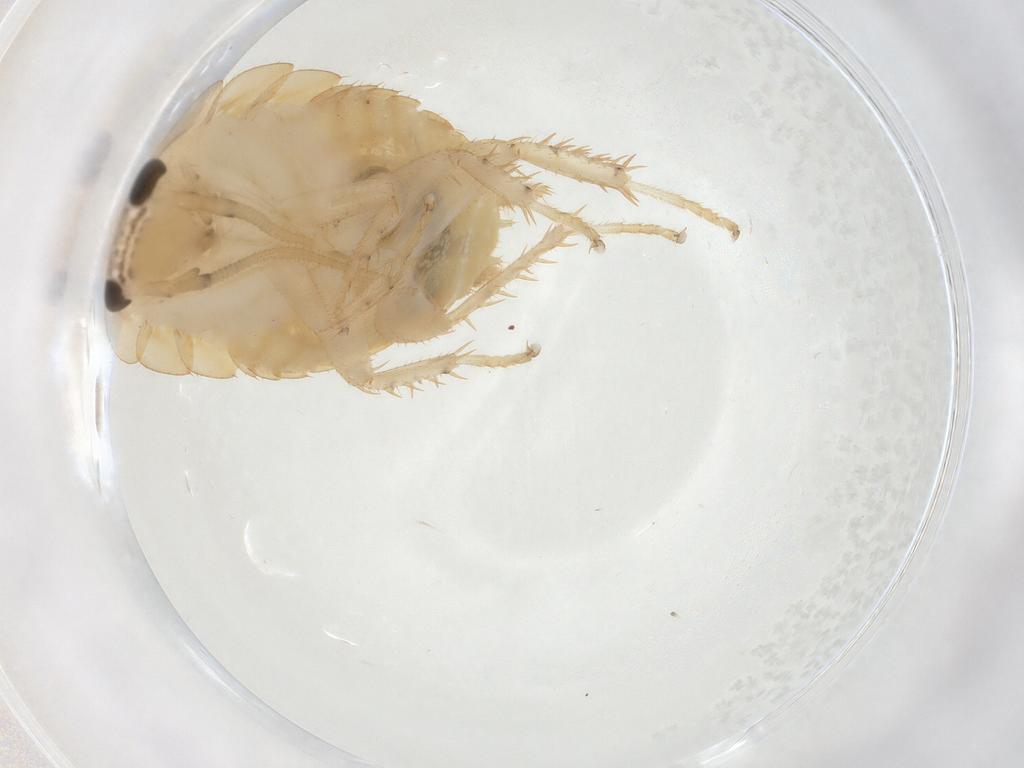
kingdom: Animalia
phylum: Arthropoda
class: Insecta
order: Blattodea
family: Ectobiidae
